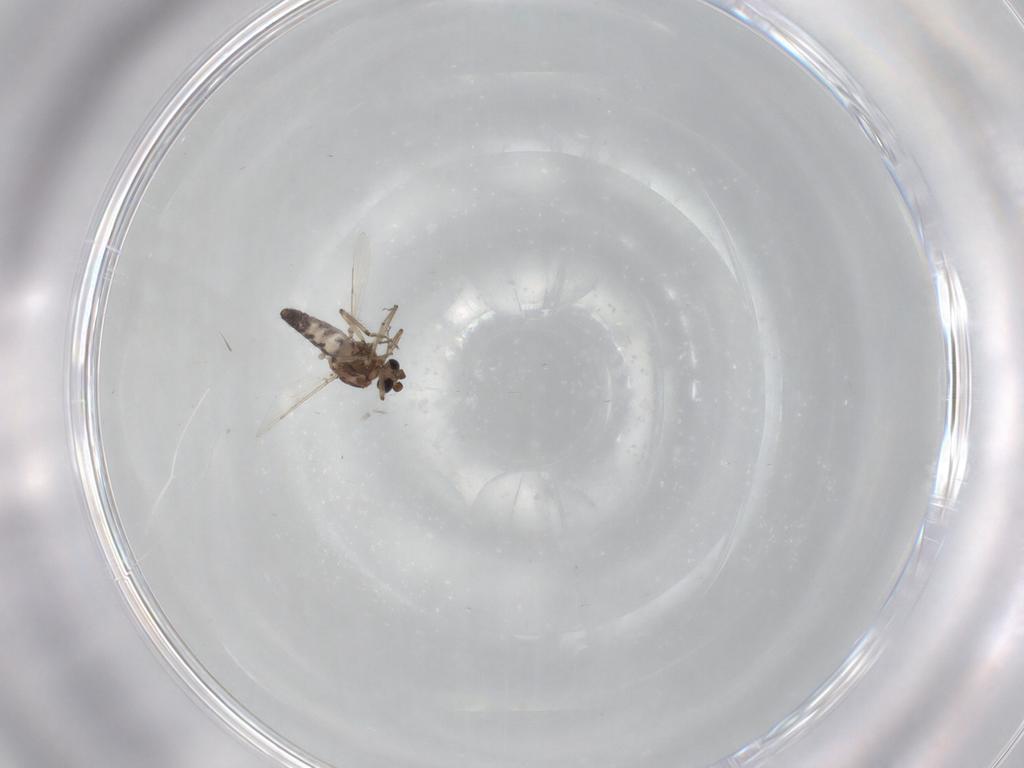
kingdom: Animalia
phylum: Arthropoda
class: Insecta
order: Diptera
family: Ceratopogonidae
